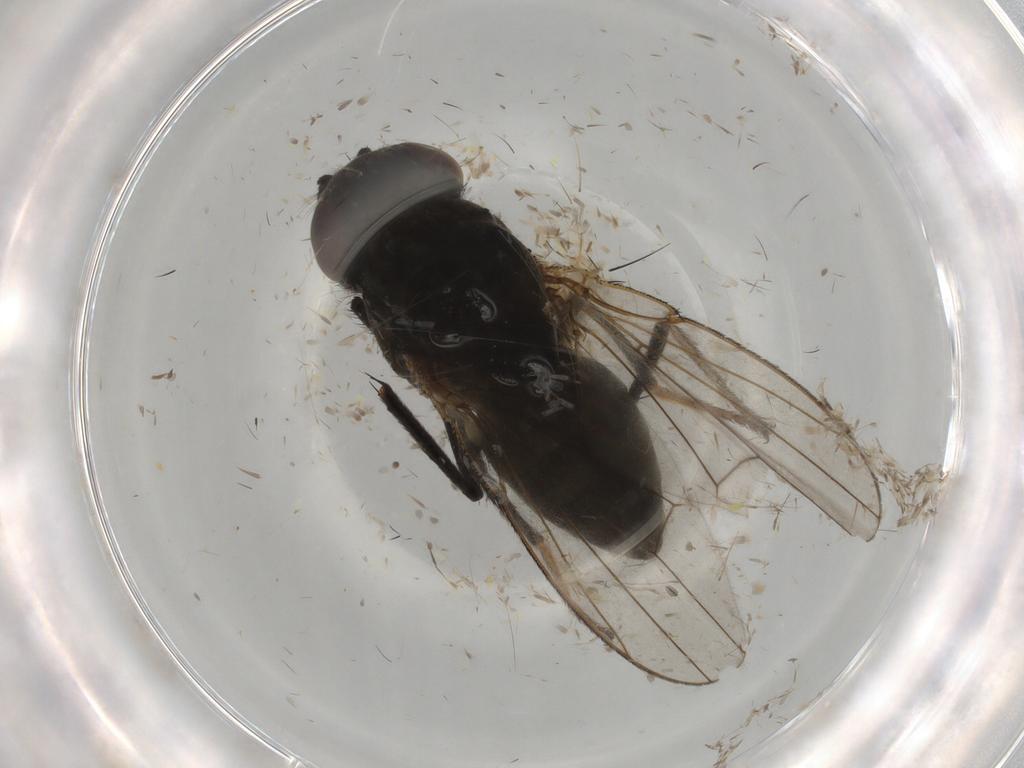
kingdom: Animalia
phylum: Arthropoda
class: Insecta
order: Diptera
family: Ephydridae
